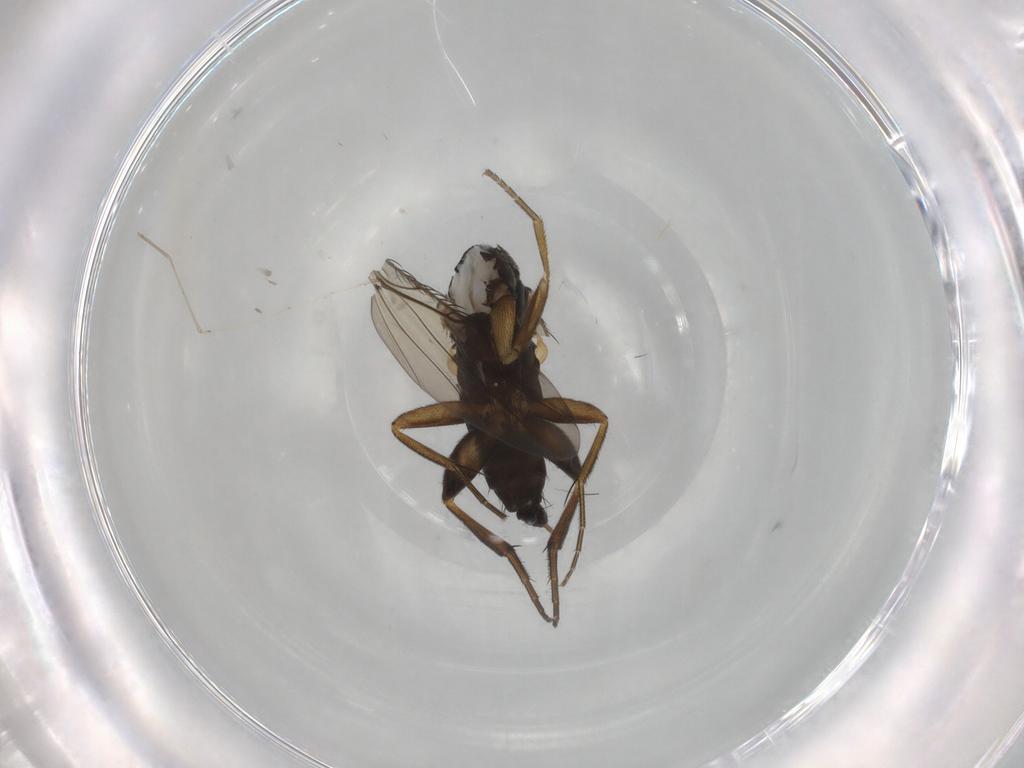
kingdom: Animalia
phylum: Arthropoda
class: Insecta
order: Diptera
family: Phoridae
